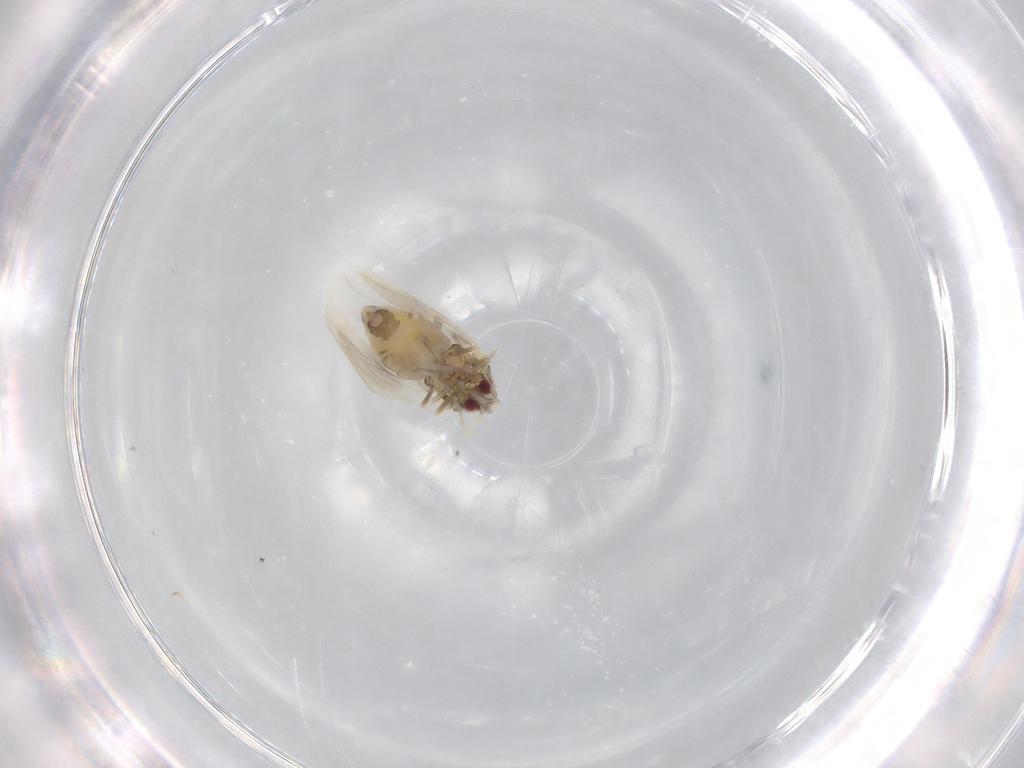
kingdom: Animalia
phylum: Arthropoda
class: Insecta
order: Hemiptera
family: Aleyrodidae
